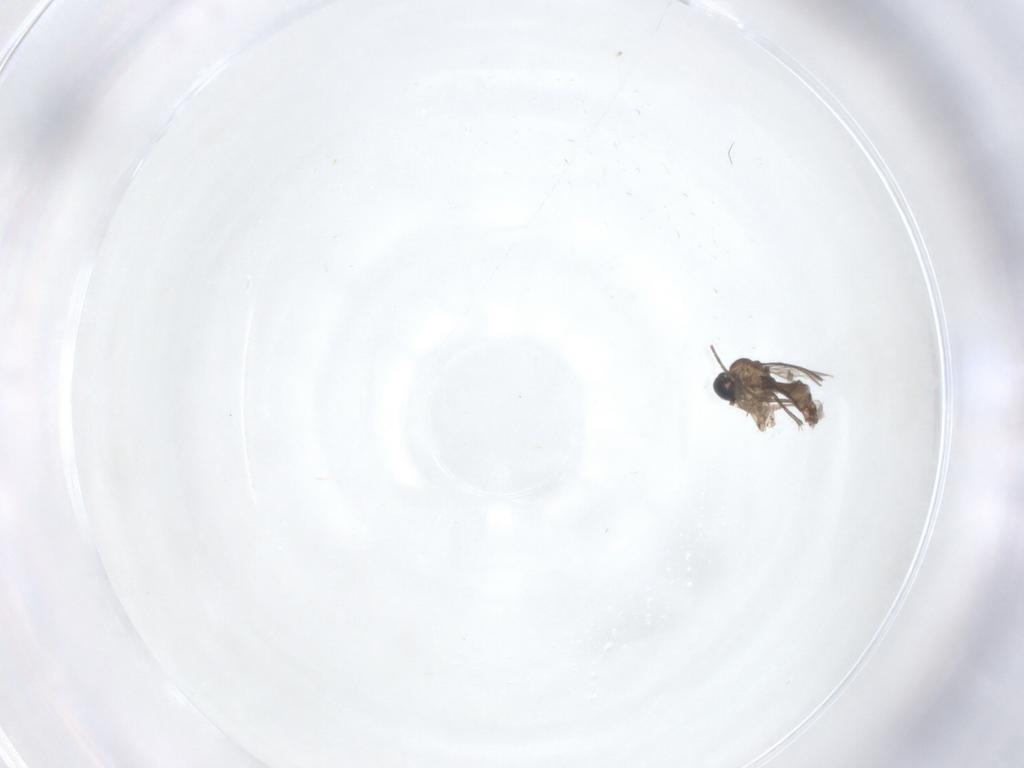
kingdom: Animalia
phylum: Arthropoda
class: Insecta
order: Diptera
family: Sciaridae
